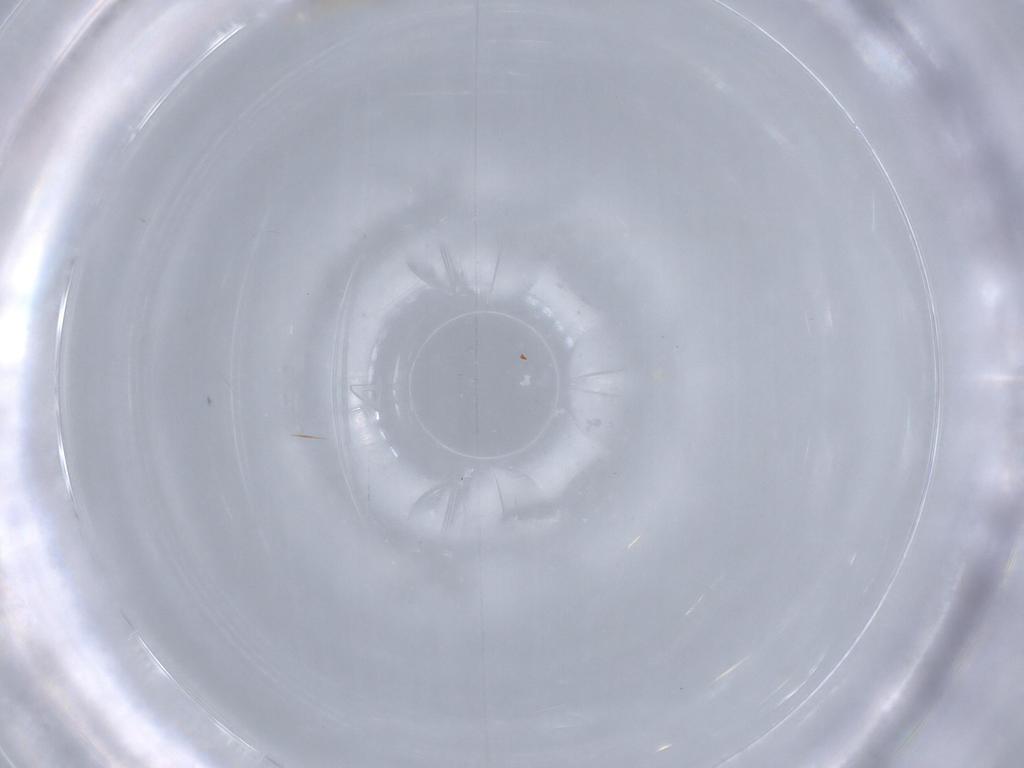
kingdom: Animalia
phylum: Arthropoda
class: Insecta
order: Diptera
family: Cecidomyiidae
